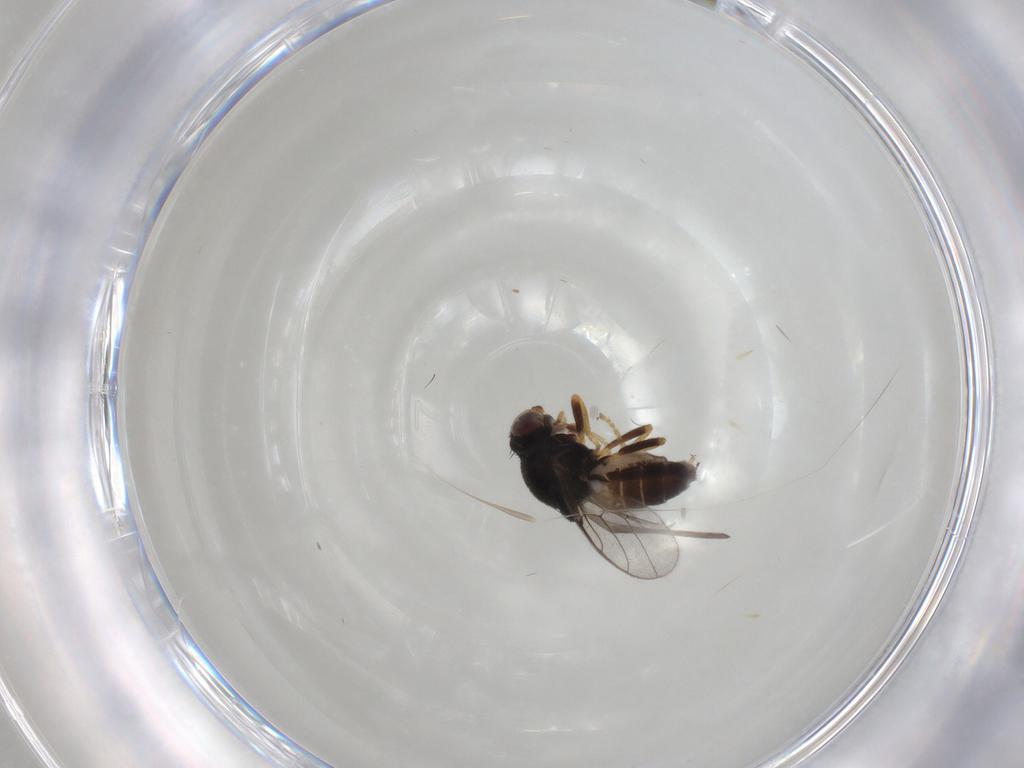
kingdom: Animalia
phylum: Arthropoda
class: Insecta
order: Diptera
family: Chloropidae
